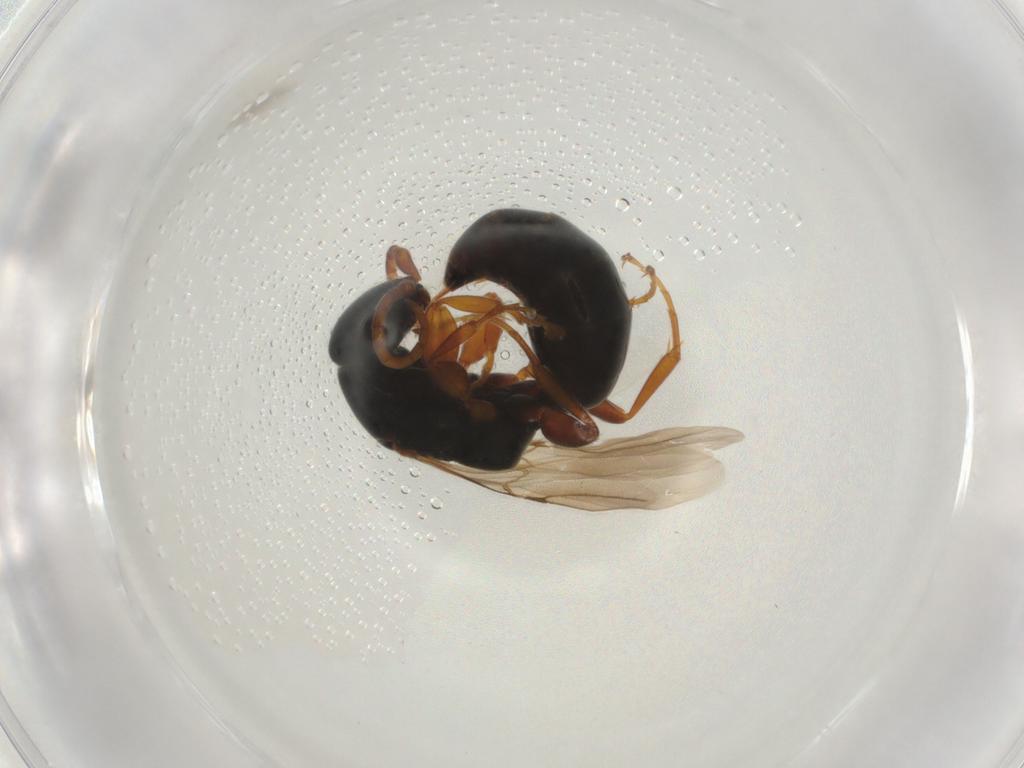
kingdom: Animalia
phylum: Arthropoda
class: Insecta
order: Hymenoptera
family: Bethylidae
